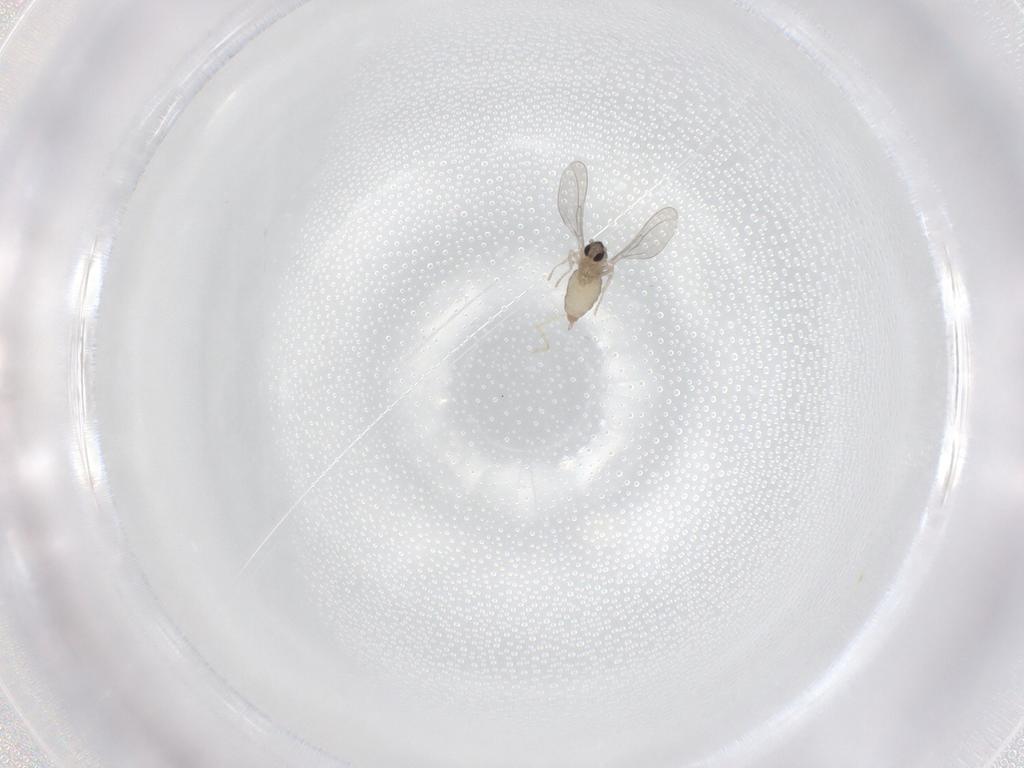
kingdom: Animalia
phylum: Arthropoda
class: Insecta
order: Diptera
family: Cecidomyiidae
